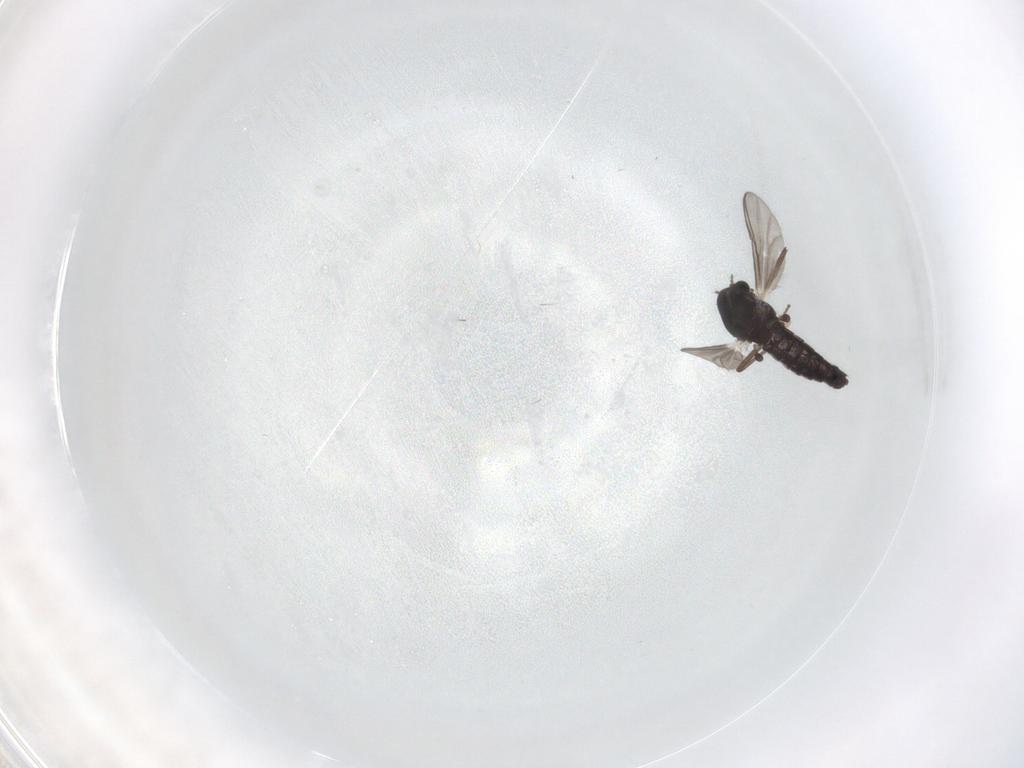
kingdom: Animalia
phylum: Arthropoda
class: Insecta
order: Diptera
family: Chironomidae
